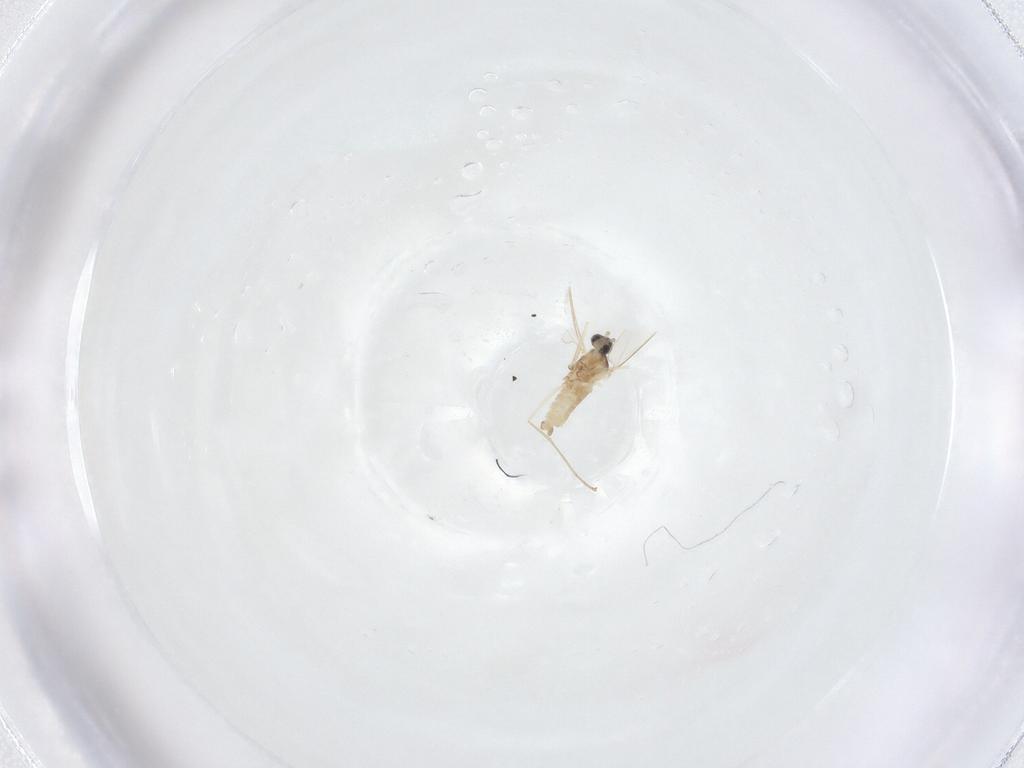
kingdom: Animalia
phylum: Arthropoda
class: Insecta
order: Diptera
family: Cecidomyiidae
